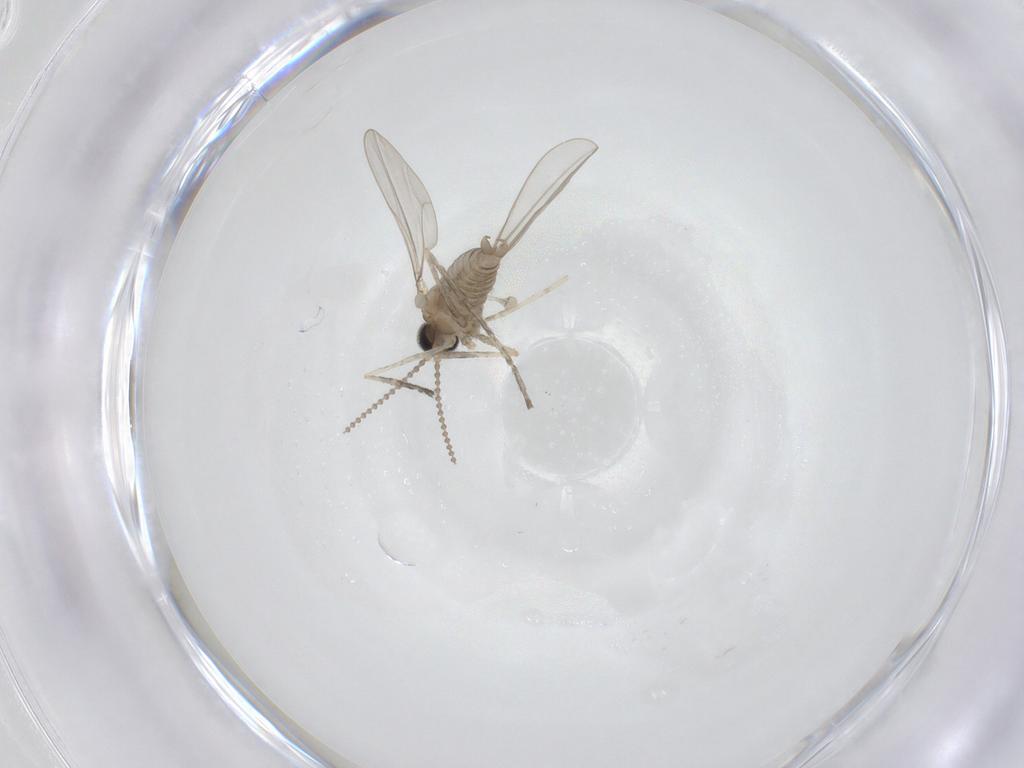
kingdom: Animalia
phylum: Arthropoda
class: Insecta
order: Diptera
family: Cecidomyiidae
